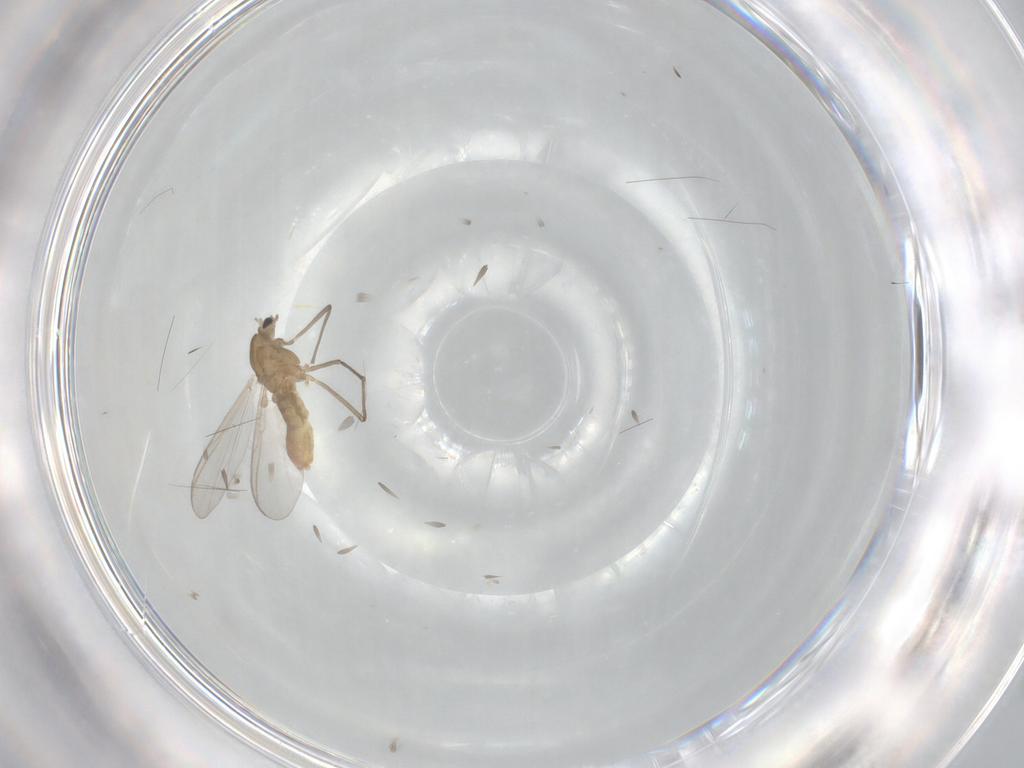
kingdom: Animalia
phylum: Arthropoda
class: Insecta
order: Diptera
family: Chironomidae
